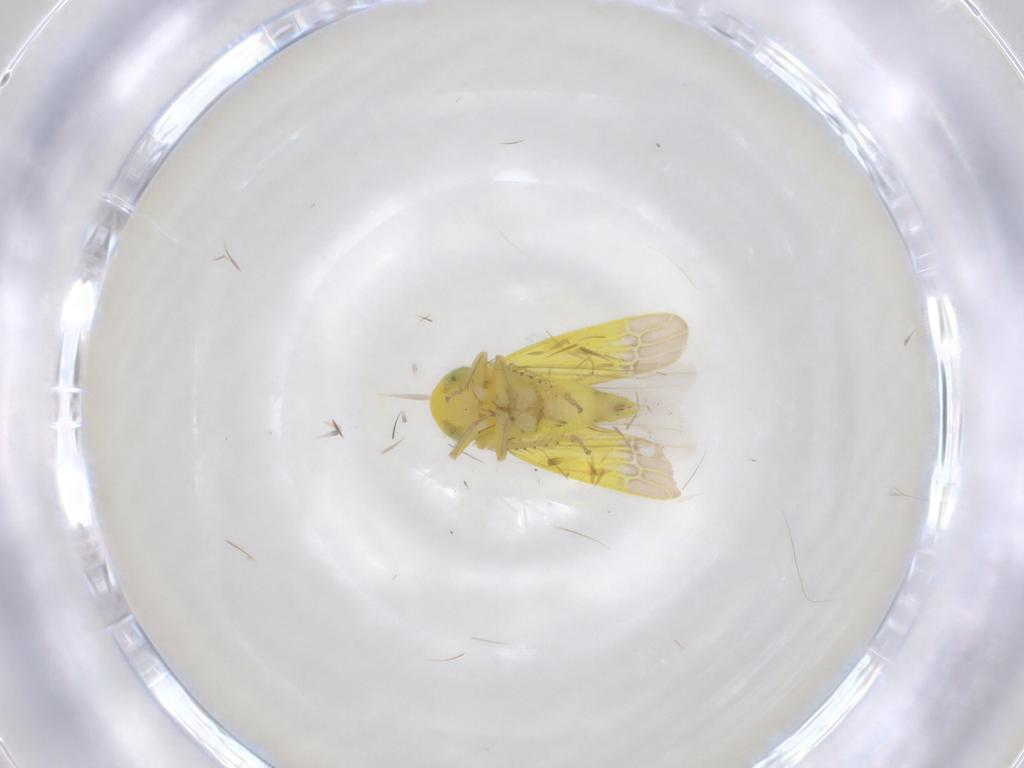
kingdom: Animalia
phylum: Arthropoda
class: Insecta
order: Hemiptera
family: Cicadellidae
